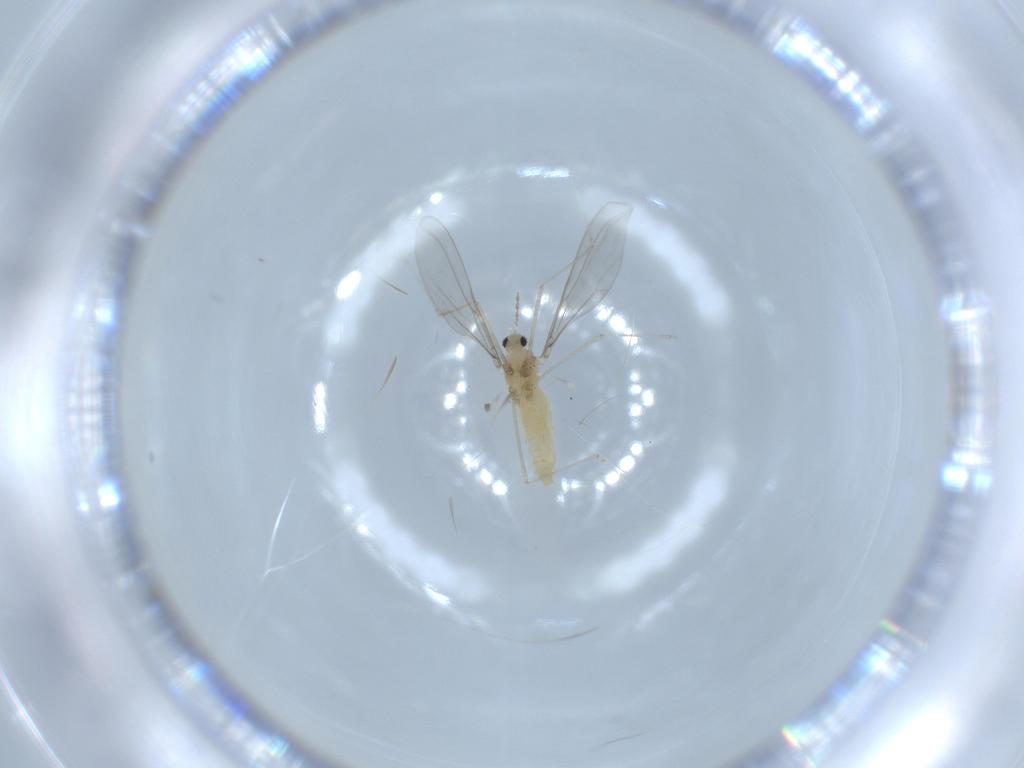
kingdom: Animalia
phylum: Arthropoda
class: Insecta
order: Diptera
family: Cecidomyiidae
